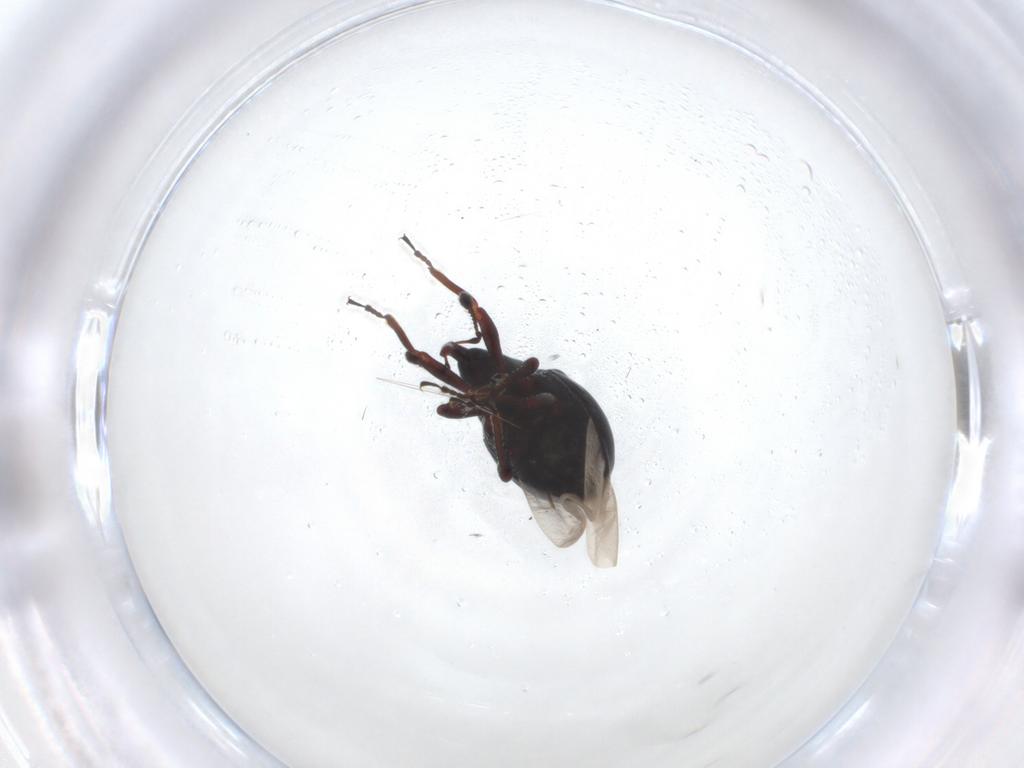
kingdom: Animalia
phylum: Arthropoda
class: Insecta
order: Coleoptera
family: Curculionidae
